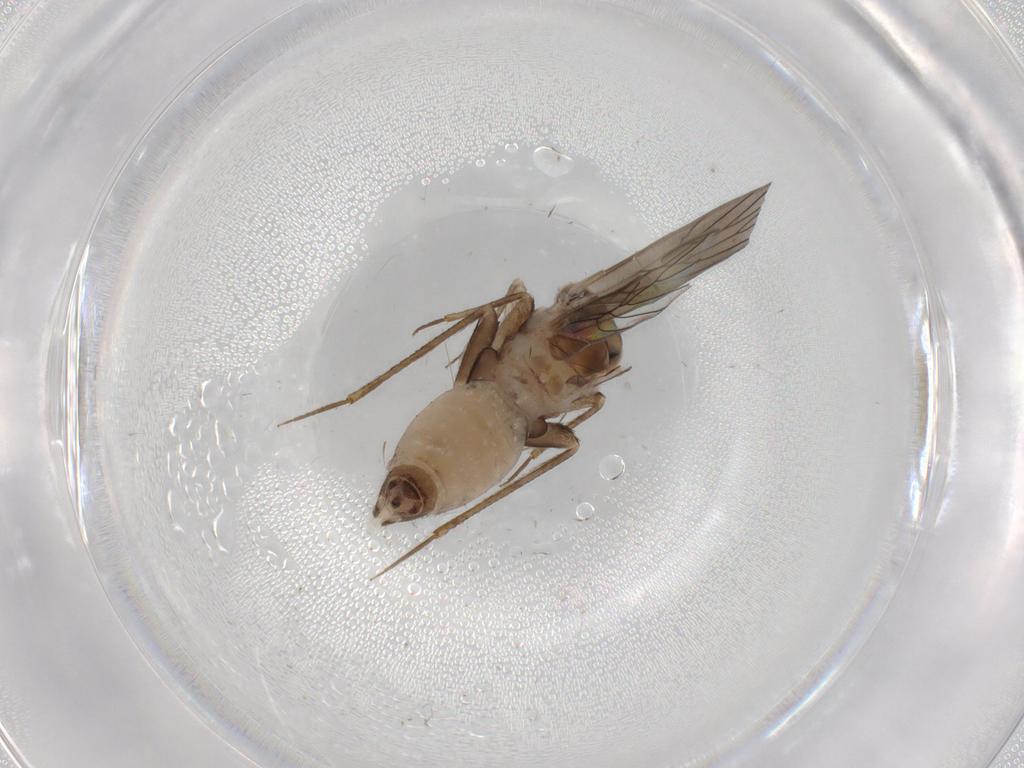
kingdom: Animalia
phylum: Arthropoda
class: Insecta
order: Psocodea
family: Lepidopsocidae
